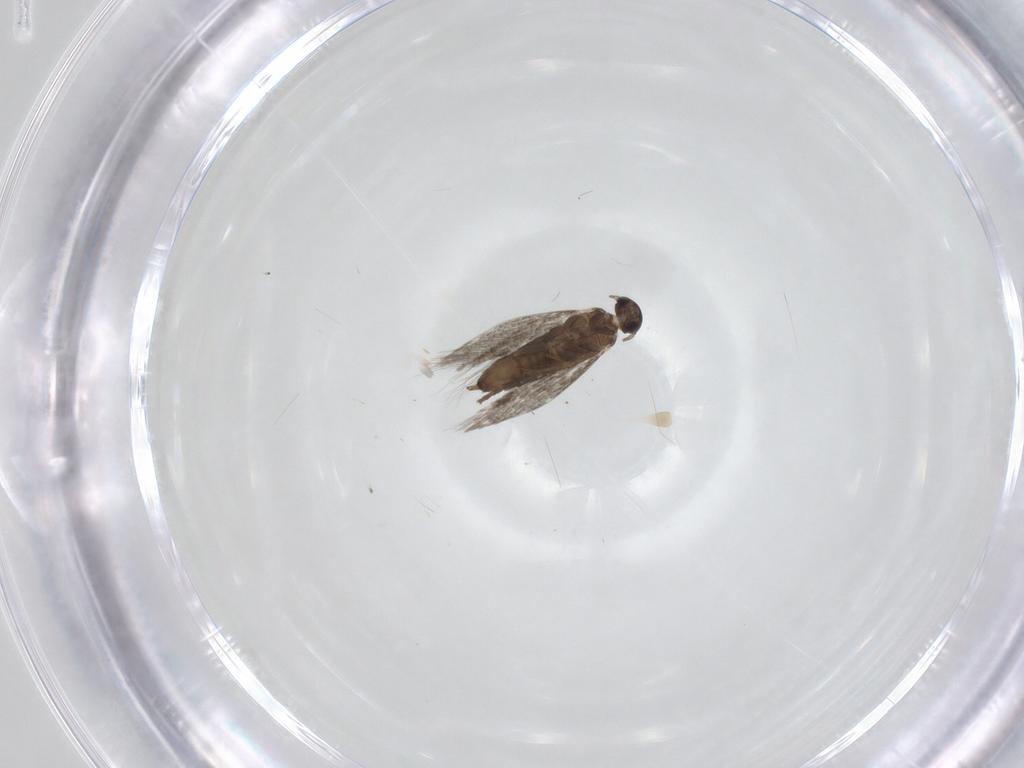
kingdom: Animalia
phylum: Arthropoda
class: Insecta
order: Lepidoptera
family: Heliozelidae
